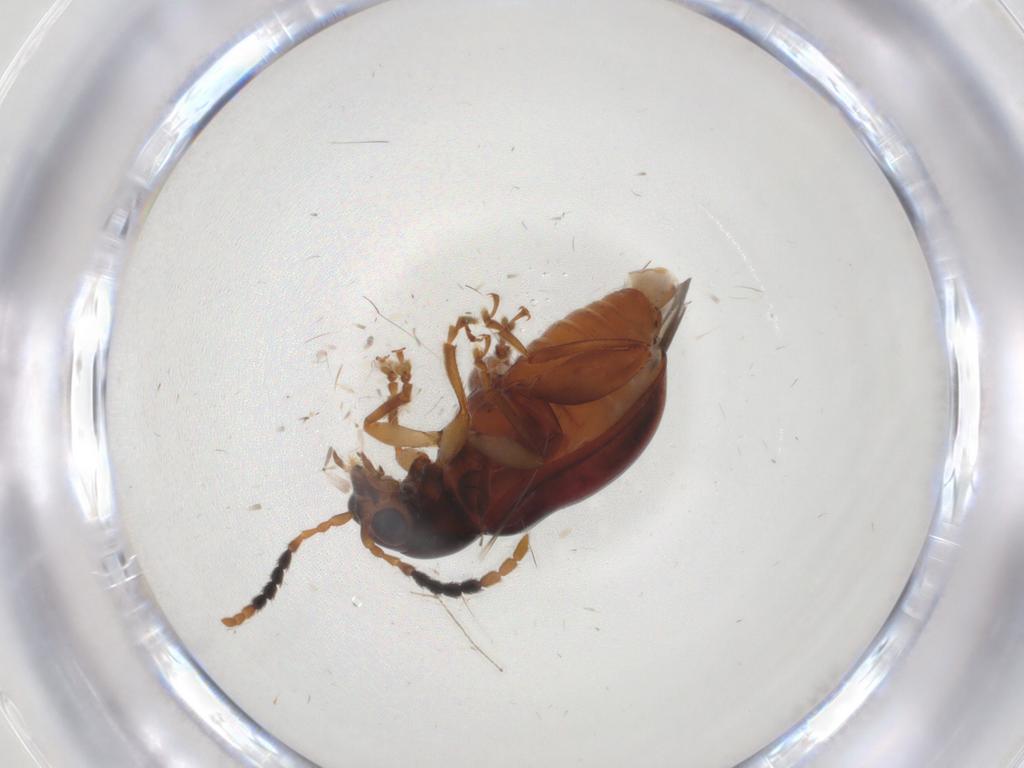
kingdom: Animalia
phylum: Arthropoda
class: Insecta
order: Coleoptera
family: Chrysomelidae
